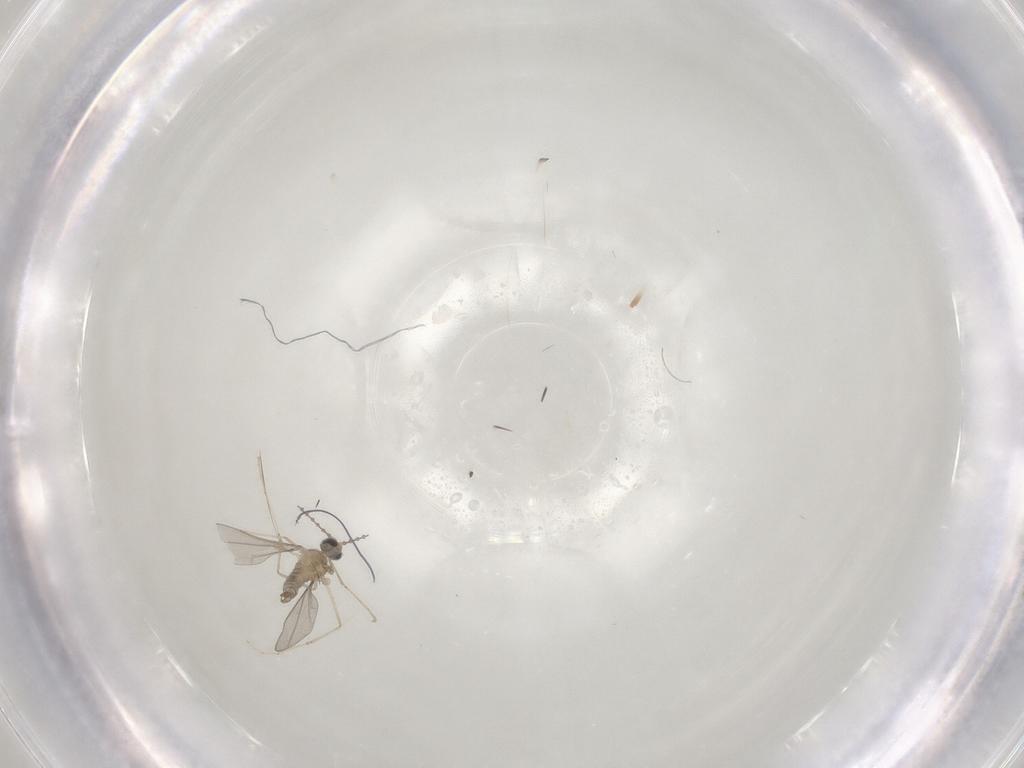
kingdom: Animalia
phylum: Arthropoda
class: Insecta
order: Diptera
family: Cecidomyiidae
